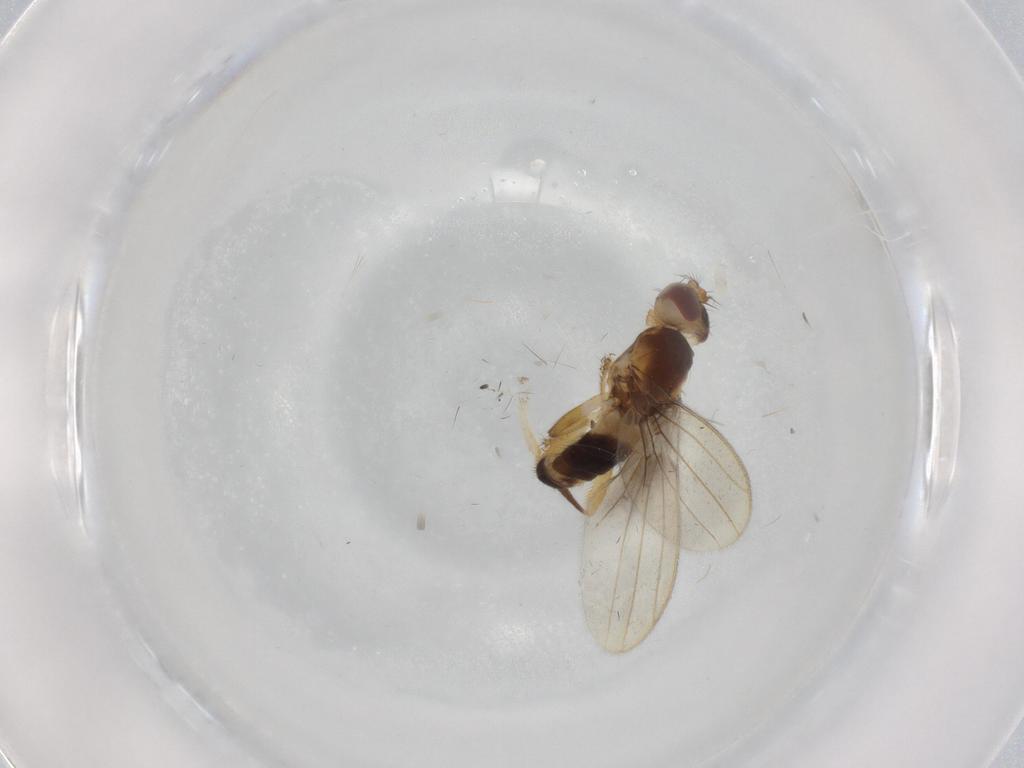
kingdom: Animalia
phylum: Arthropoda
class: Insecta
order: Diptera
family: Periscelididae
